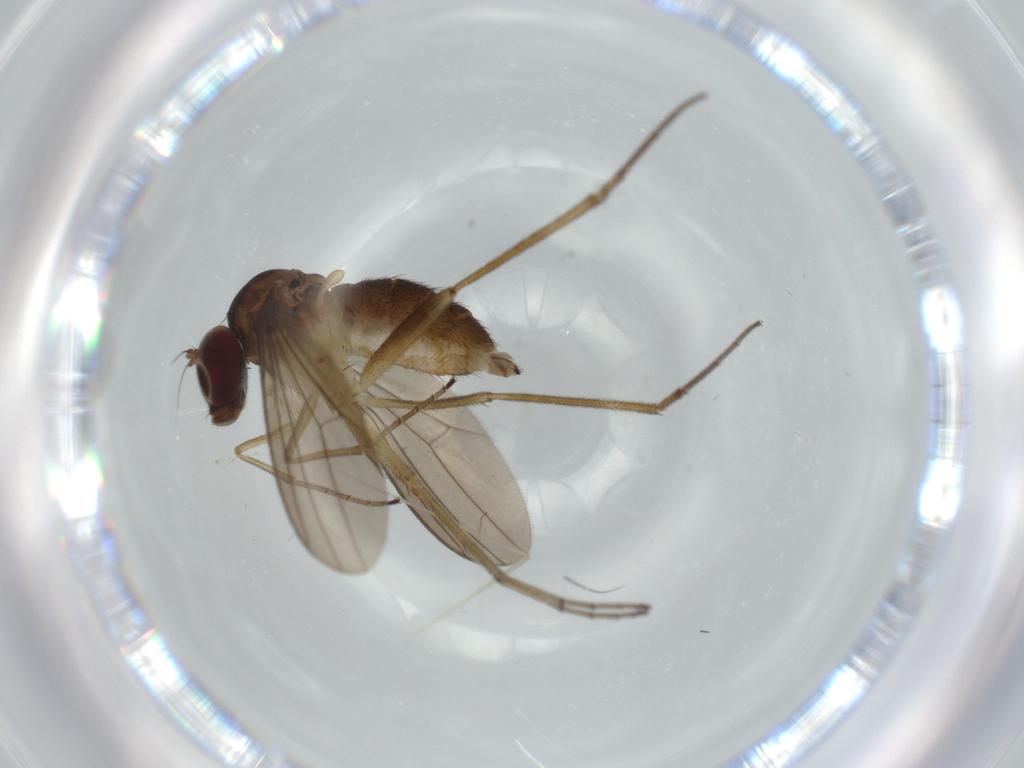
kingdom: Animalia
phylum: Arthropoda
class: Insecta
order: Diptera
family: Dolichopodidae
